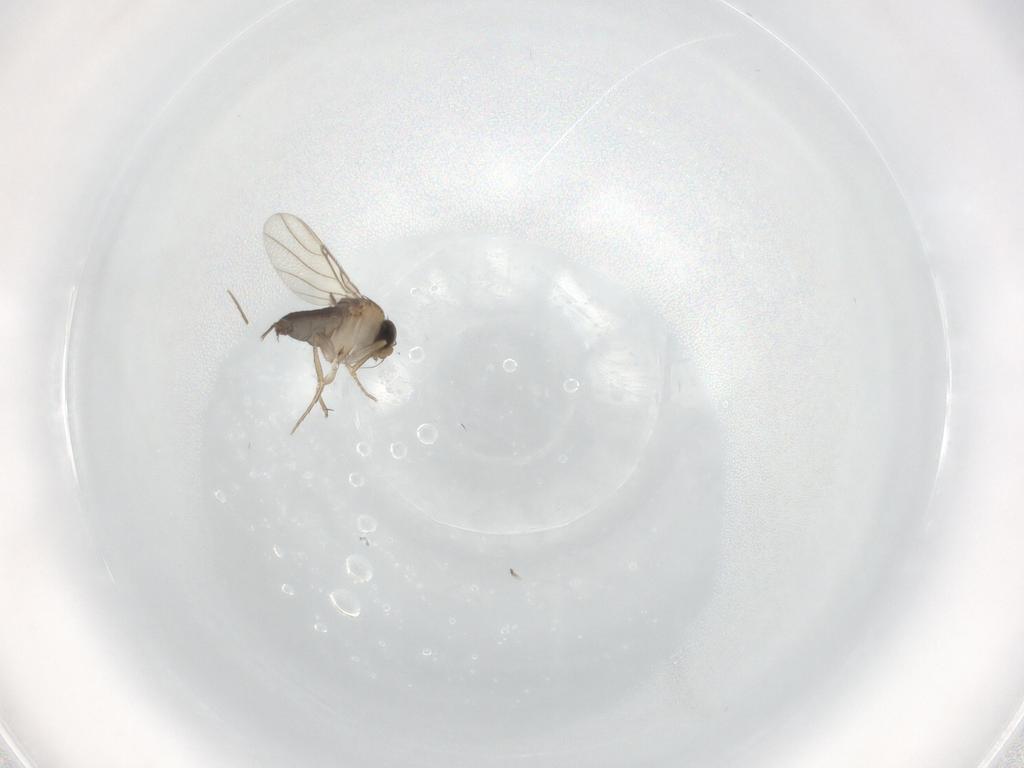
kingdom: Animalia
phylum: Arthropoda
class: Insecta
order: Diptera
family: Phoridae
